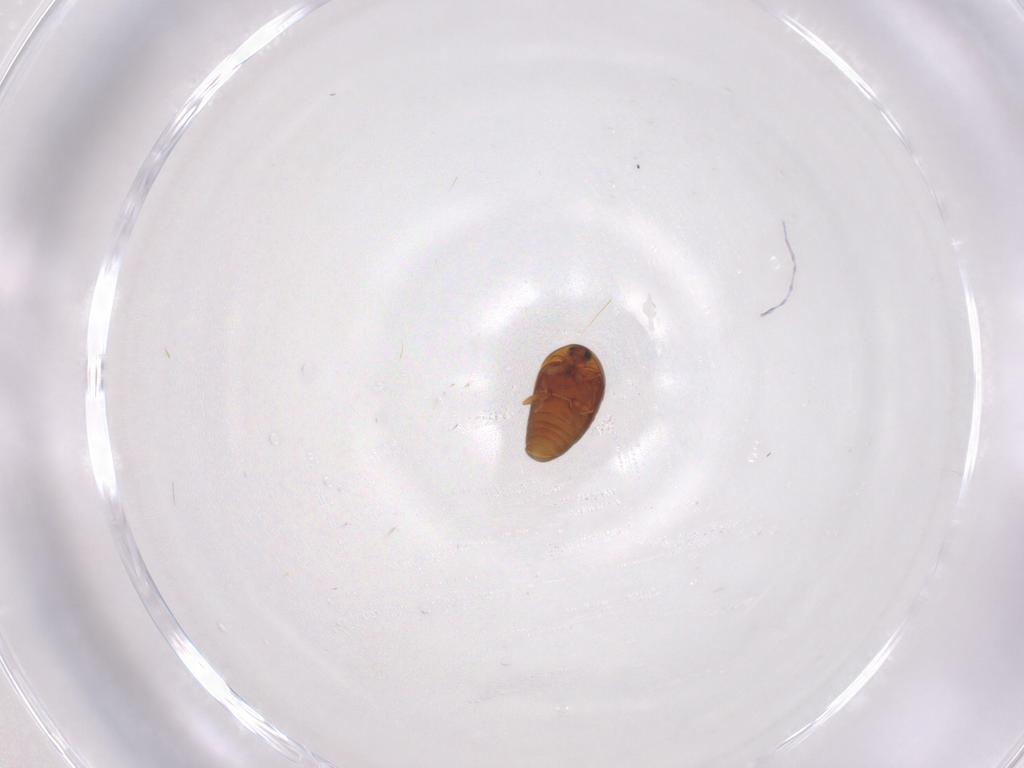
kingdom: Animalia
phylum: Arthropoda
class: Insecta
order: Coleoptera
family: Corylophidae
